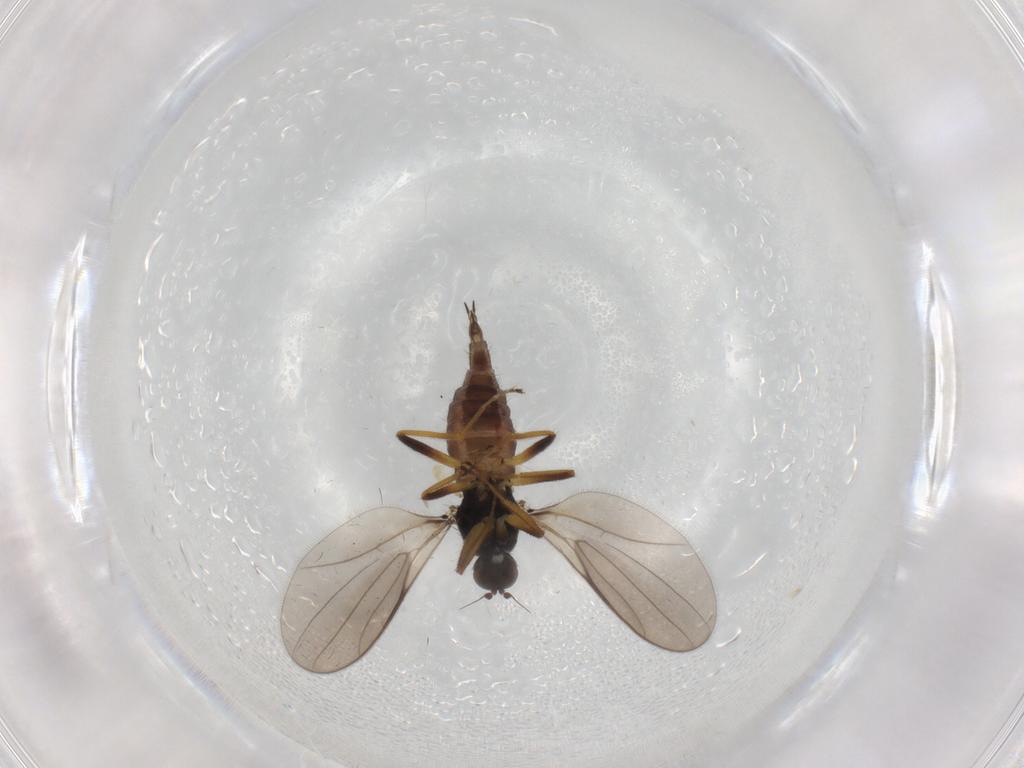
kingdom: Animalia
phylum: Arthropoda
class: Insecta
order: Diptera
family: Hybotidae
